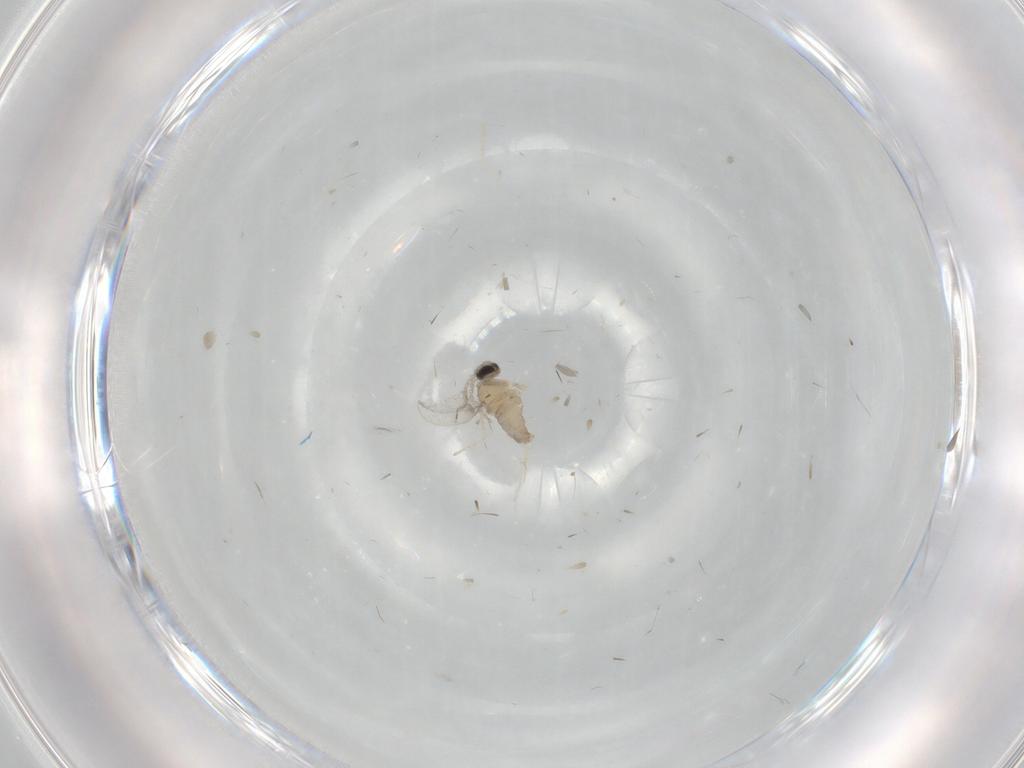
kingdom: Animalia
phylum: Arthropoda
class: Insecta
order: Diptera
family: Cecidomyiidae
